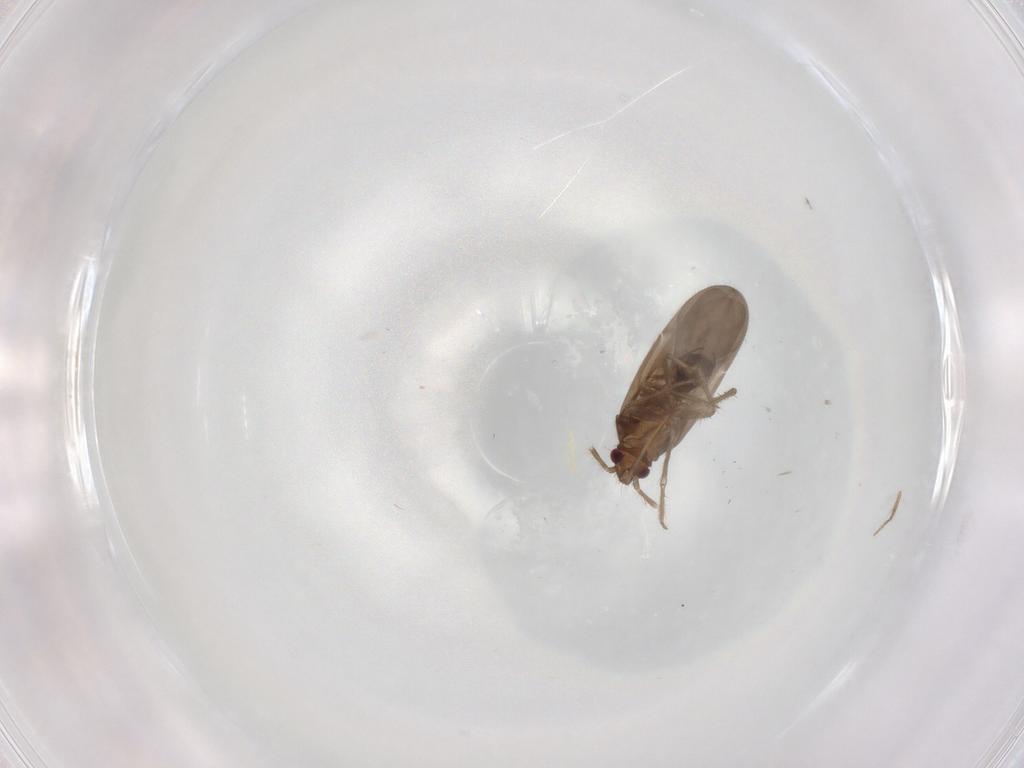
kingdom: Animalia
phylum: Arthropoda
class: Insecta
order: Hemiptera
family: Ceratocombidae
